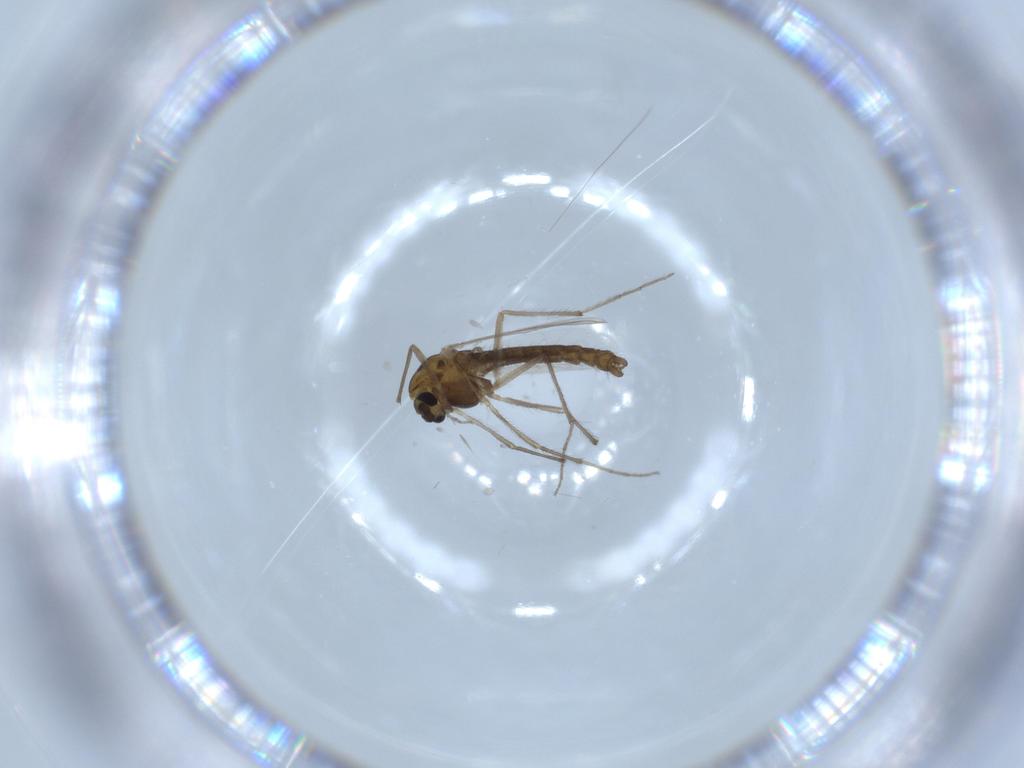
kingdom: Animalia
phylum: Arthropoda
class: Insecta
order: Diptera
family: Chironomidae
